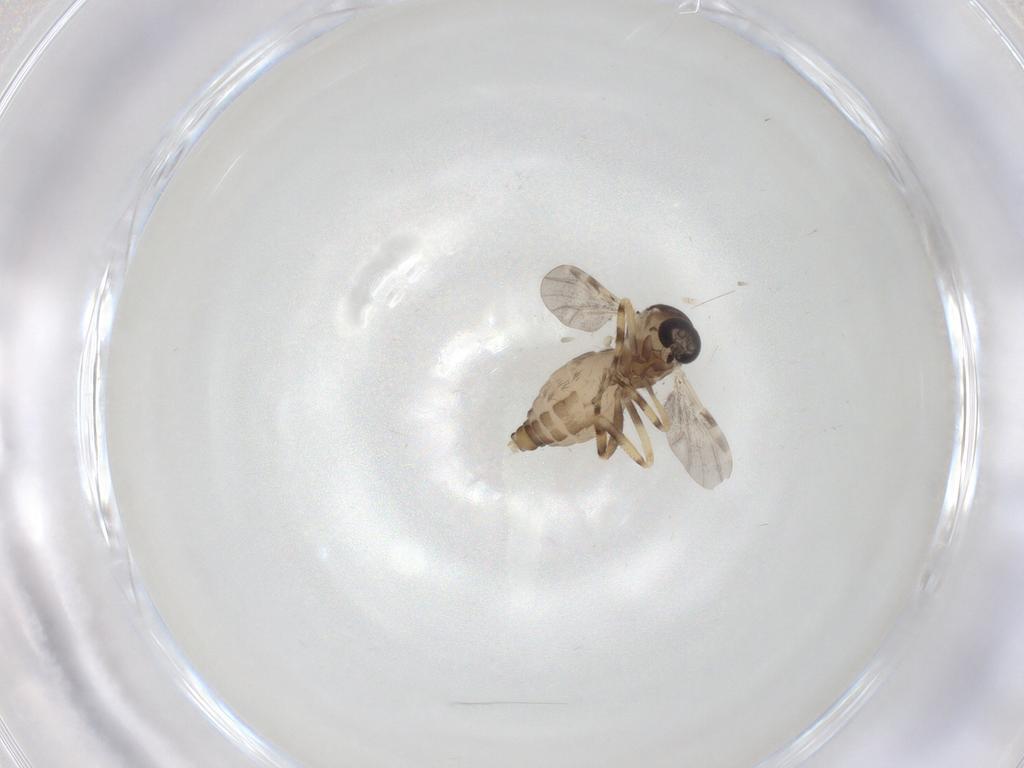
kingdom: Animalia
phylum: Arthropoda
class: Insecta
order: Diptera
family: Ceratopogonidae
